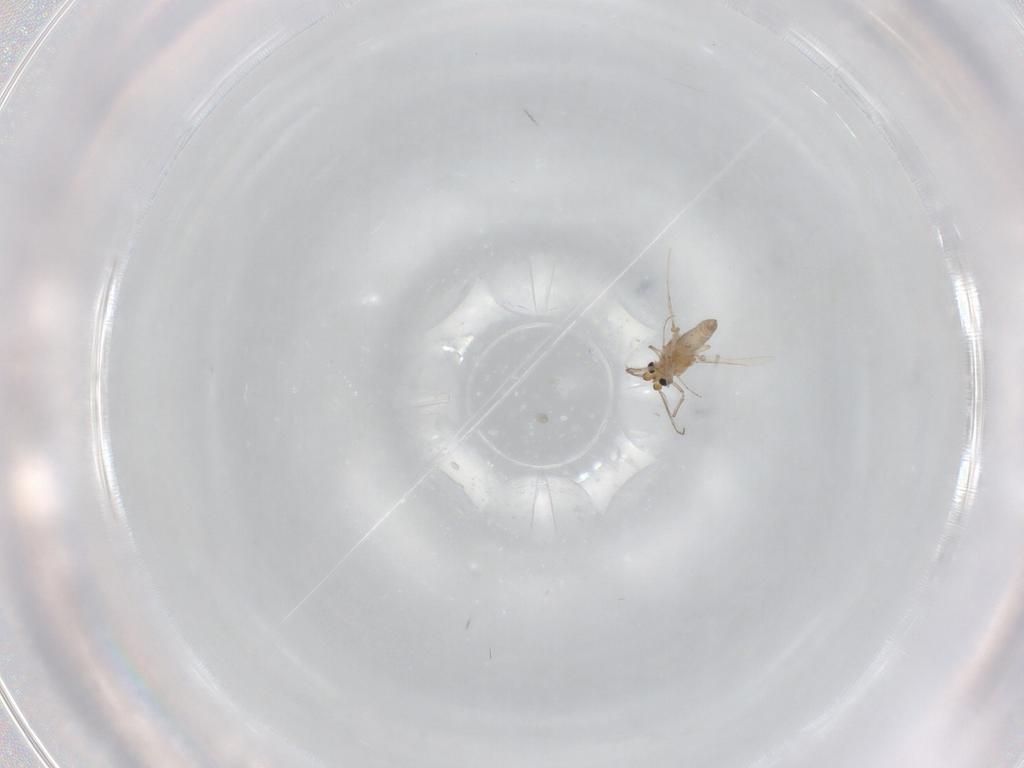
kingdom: Animalia
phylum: Arthropoda
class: Insecta
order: Diptera
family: Ceratopogonidae
